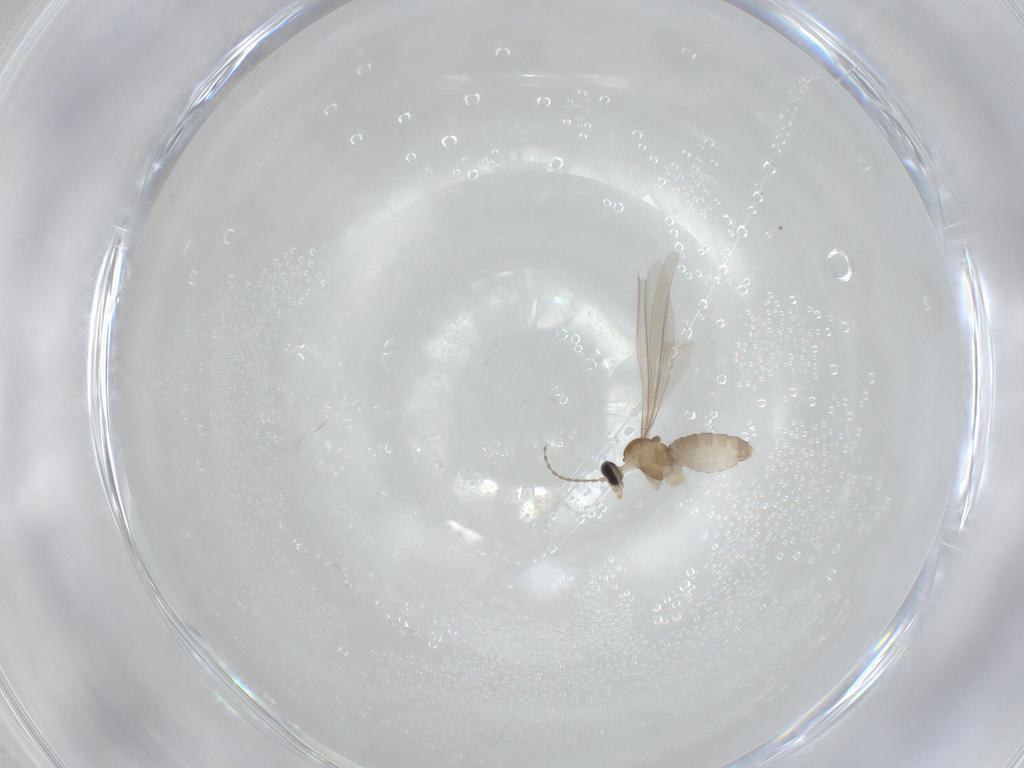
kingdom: Animalia
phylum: Arthropoda
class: Insecta
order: Diptera
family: Cecidomyiidae
